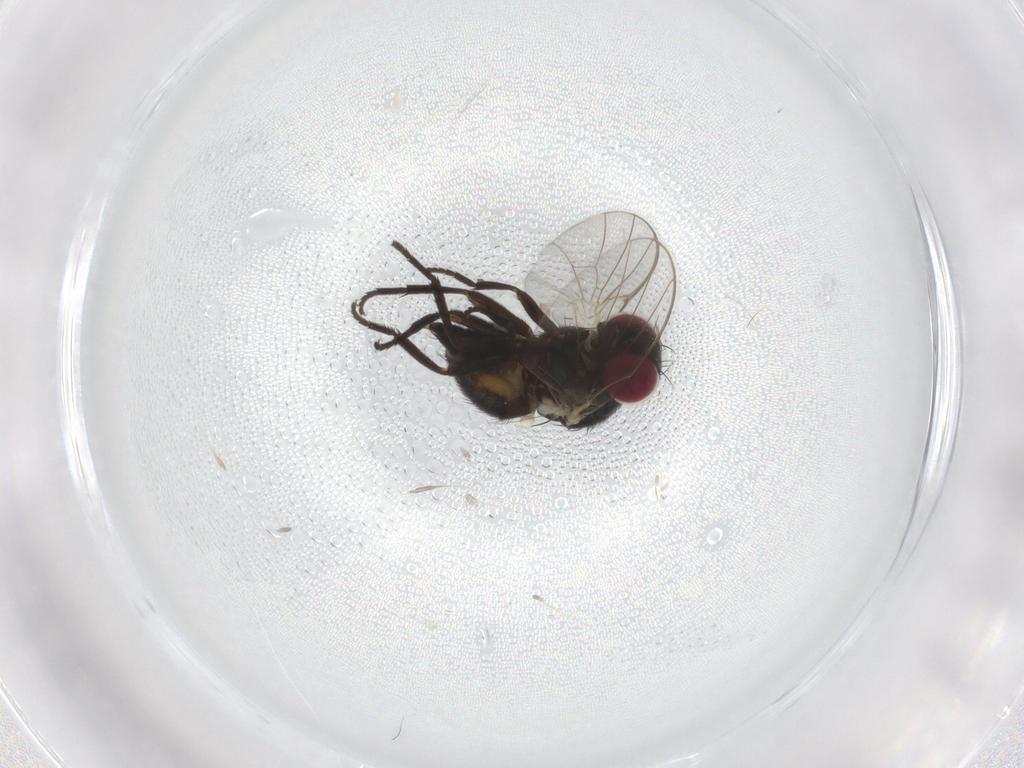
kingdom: Animalia
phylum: Arthropoda
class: Insecta
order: Diptera
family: Agromyzidae
